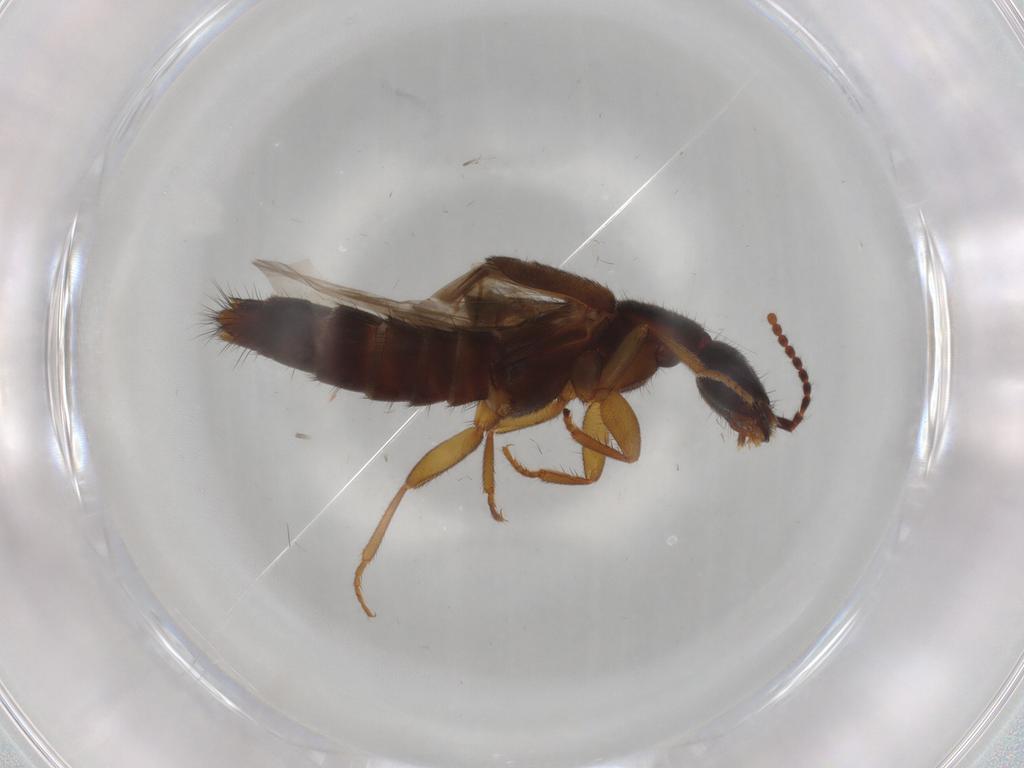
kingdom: Animalia
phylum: Arthropoda
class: Insecta
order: Coleoptera
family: Staphylinidae
